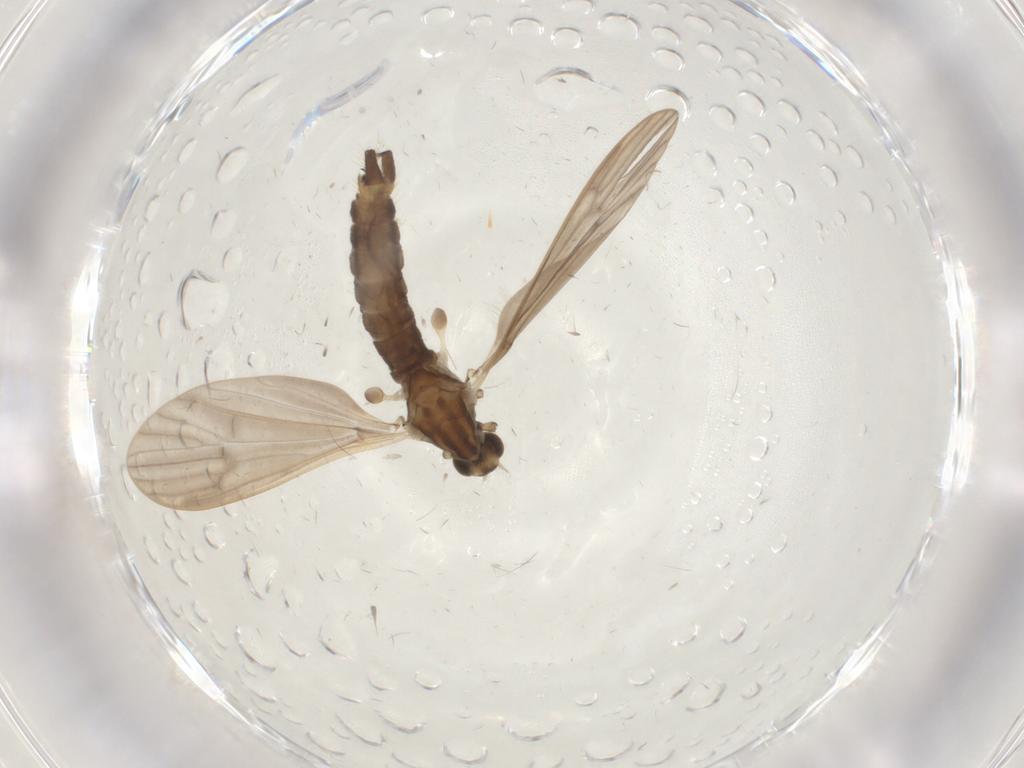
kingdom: Animalia
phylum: Arthropoda
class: Insecta
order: Diptera
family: Limoniidae
